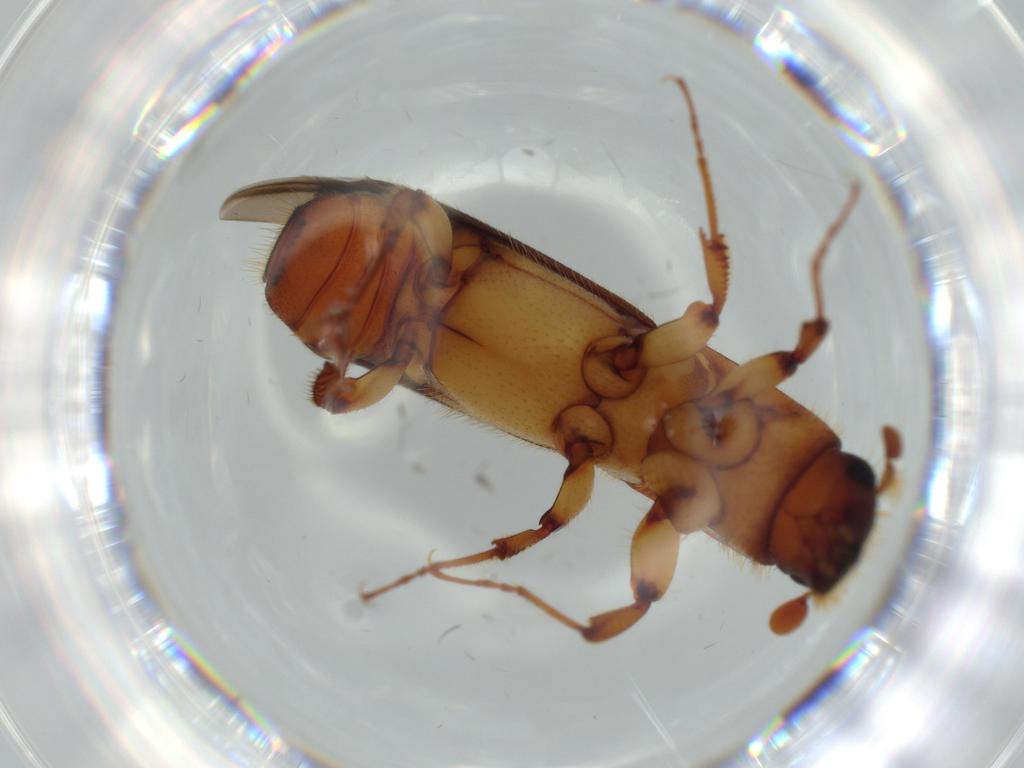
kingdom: Animalia
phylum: Arthropoda
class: Insecta
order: Coleoptera
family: Curculionidae
